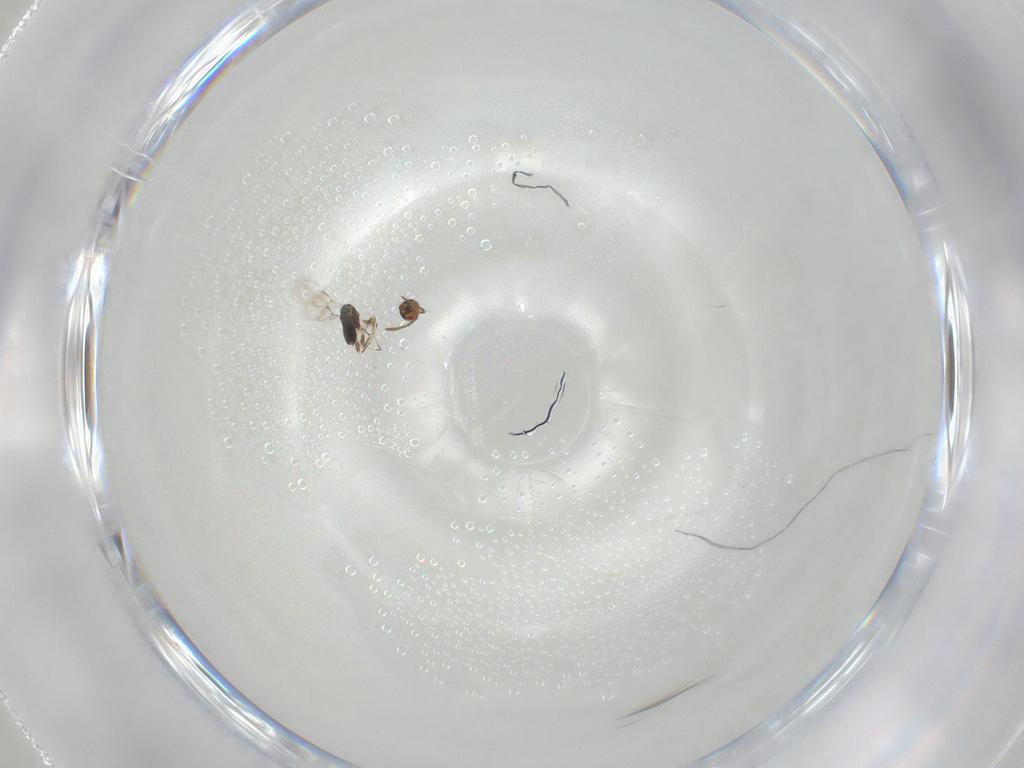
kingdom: Animalia
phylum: Arthropoda
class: Insecta
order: Hymenoptera
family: Azotidae
